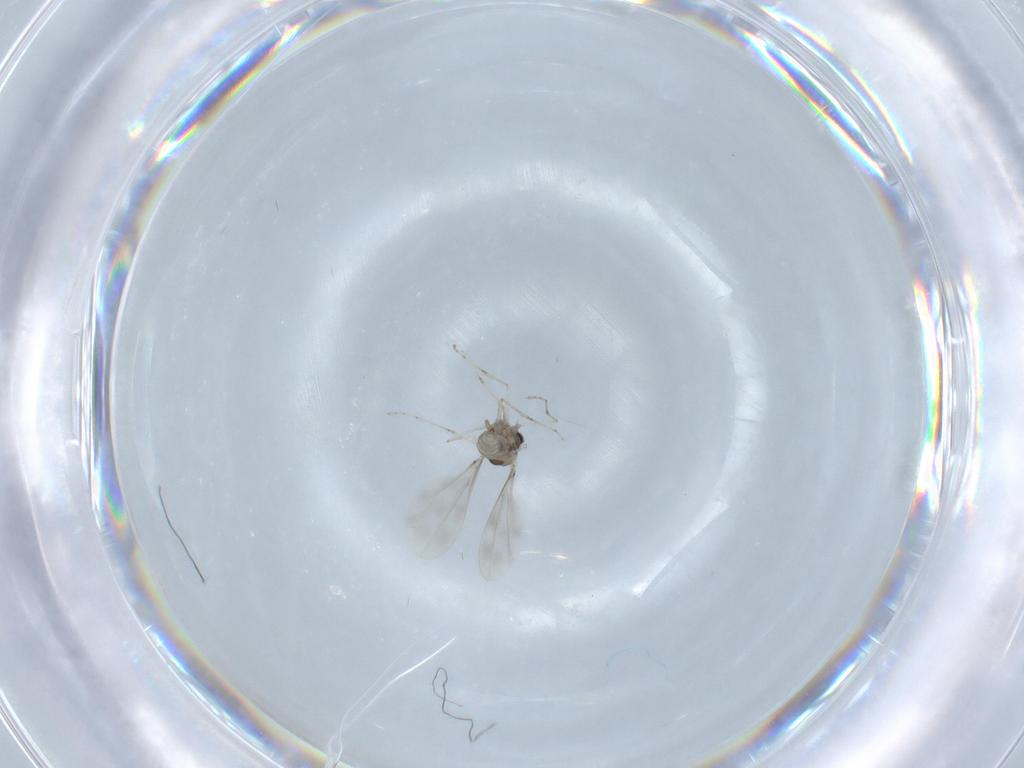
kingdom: Animalia
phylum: Arthropoda
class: Insecta
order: Diptera
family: Cecidomyiidae
